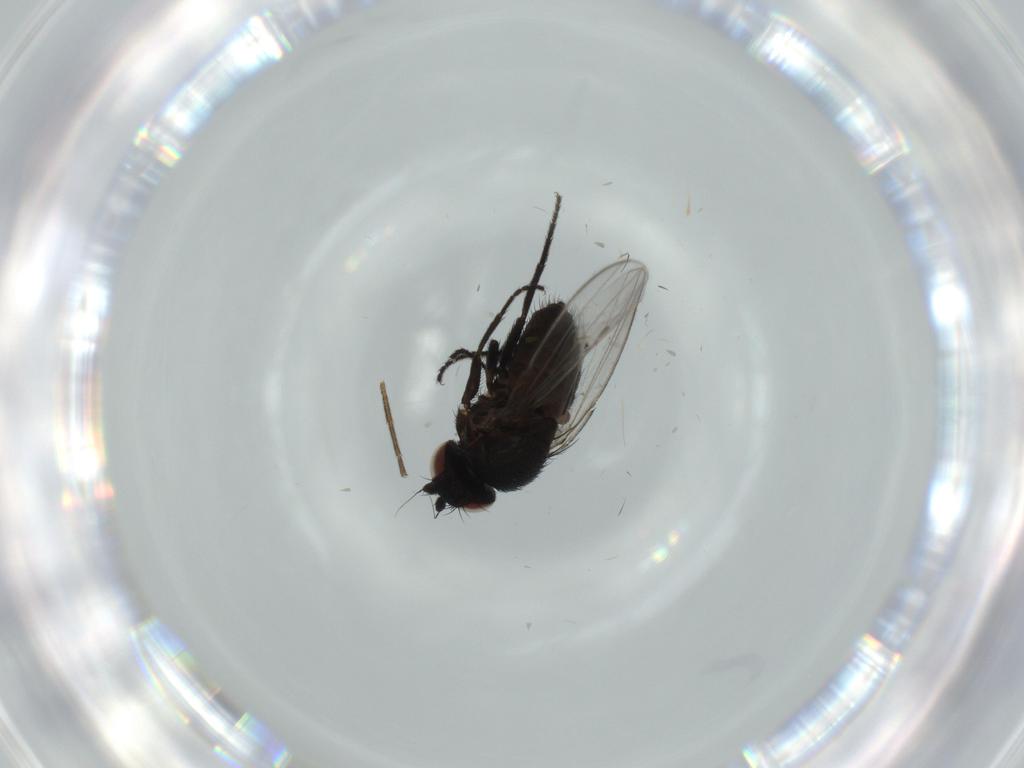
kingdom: Animalia
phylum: Arthropoda
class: Insecta
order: Diptera
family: Milichiidae
